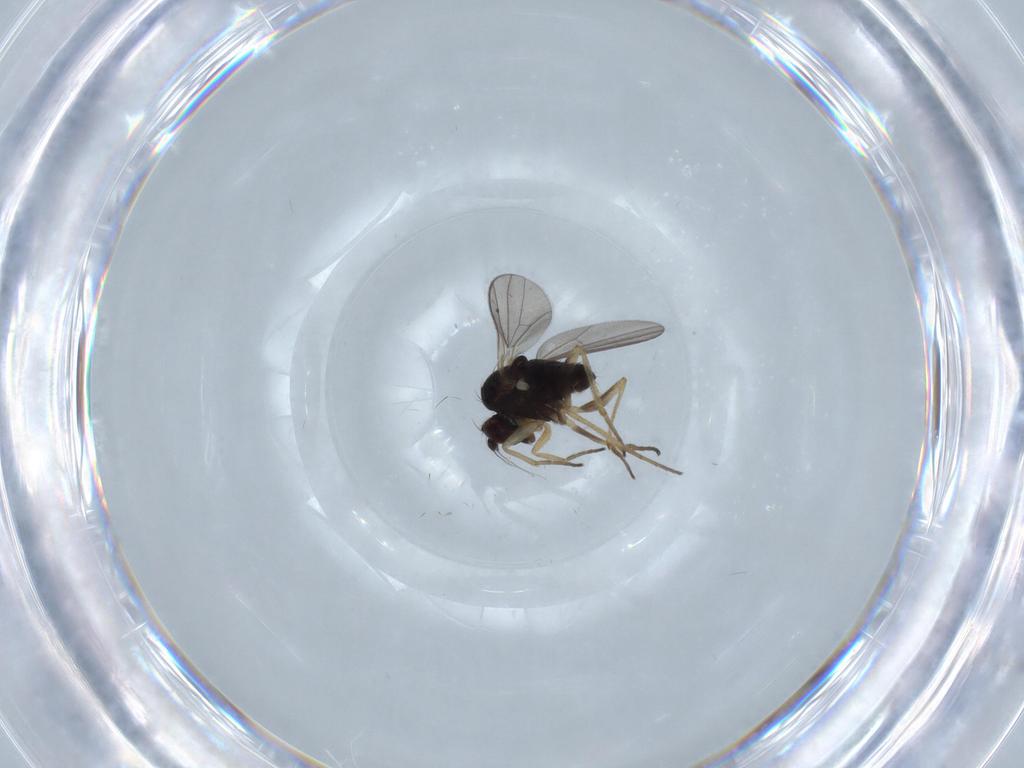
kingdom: Animalia
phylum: Arthropoda
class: Insecta
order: Diptera
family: Dolichopodidae
